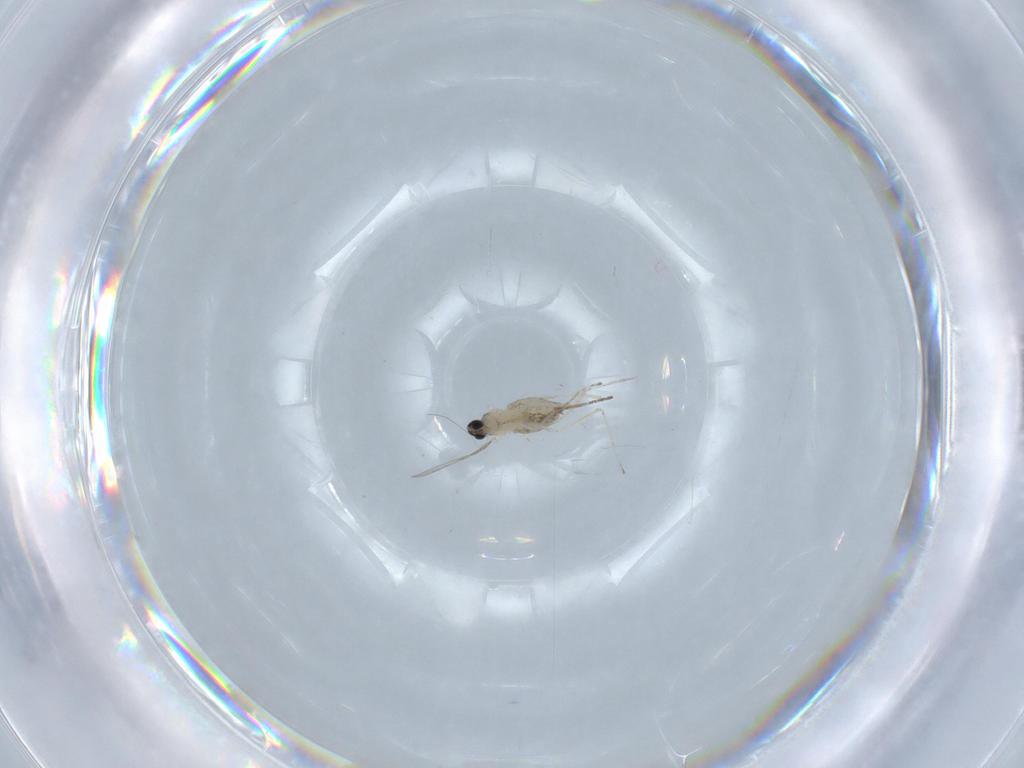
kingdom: Animalia
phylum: Arthropoda
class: Insecta
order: Diptera
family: Cecidomyiidae
